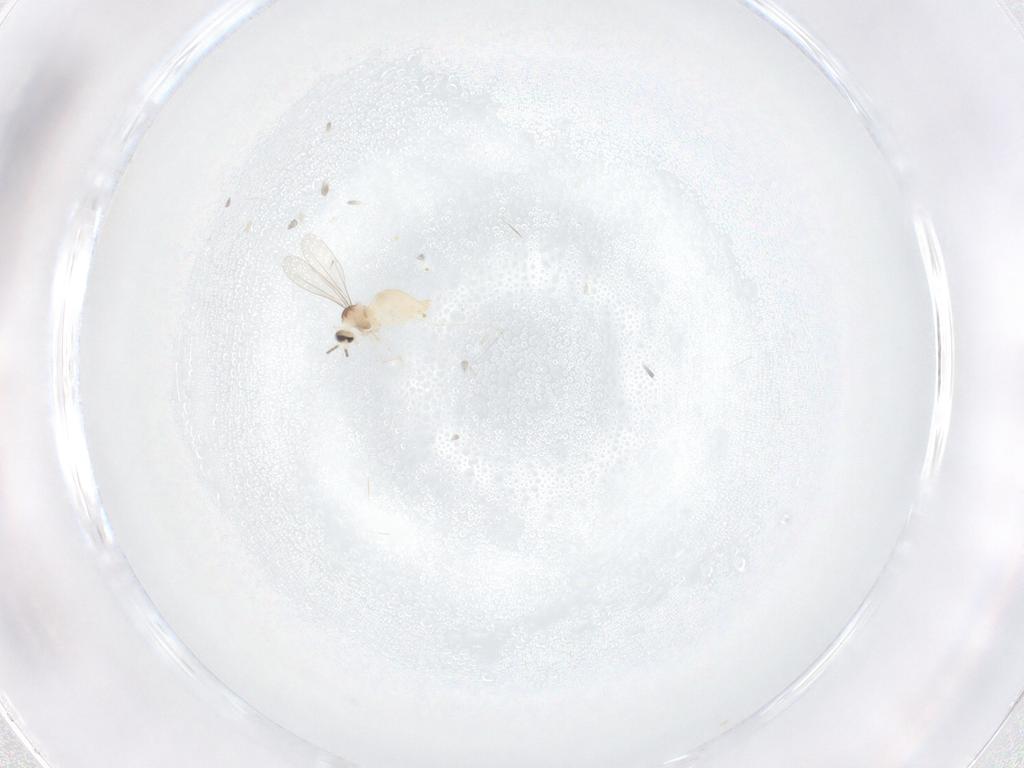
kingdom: Animalia
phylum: Arthropoda
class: Insecta
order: Diptera
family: Cecidomyiidae
